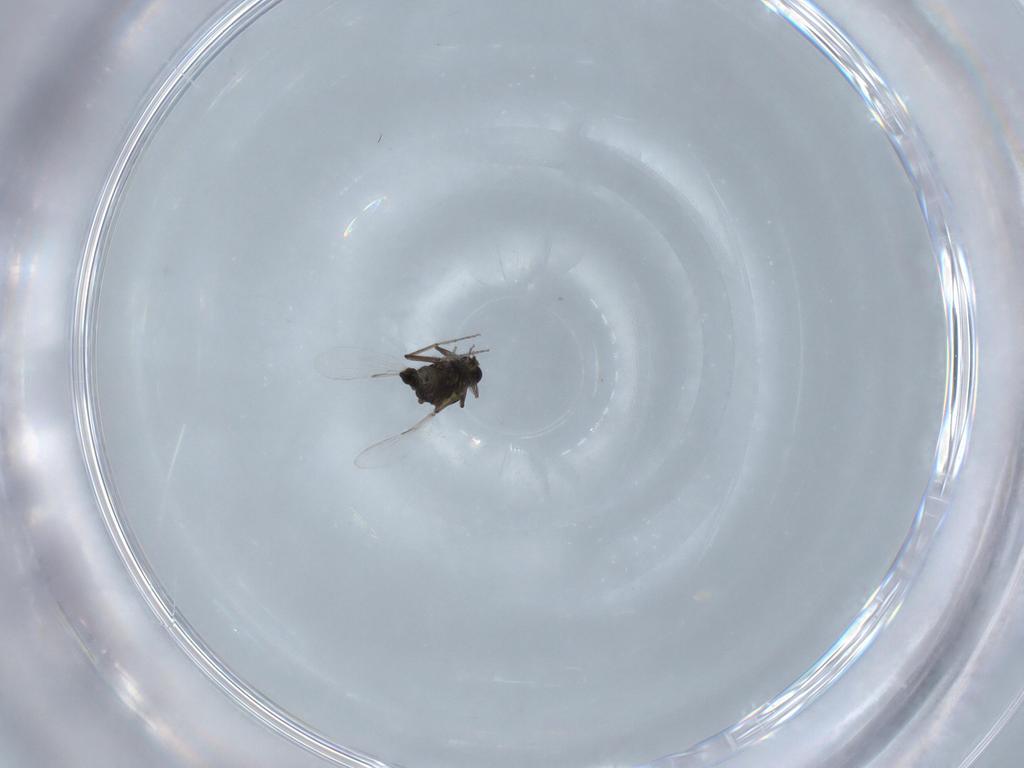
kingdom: Animalia
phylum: Arthropoda
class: Insecta
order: Diptera
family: Ceratopogonidae
